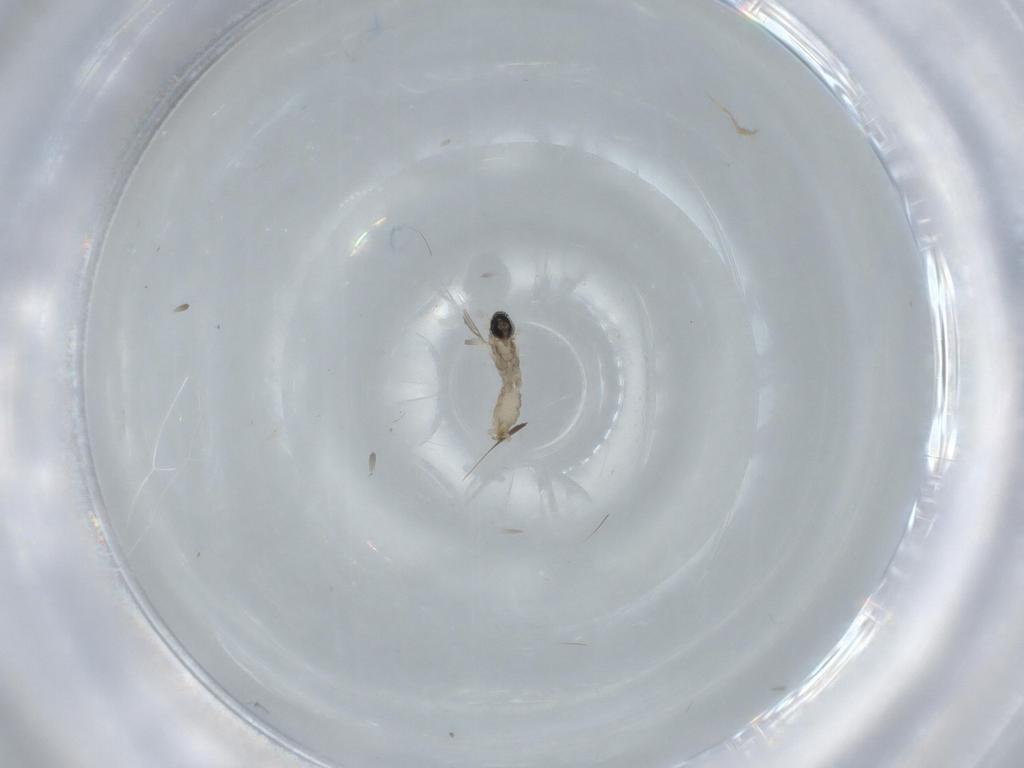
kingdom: Animalia
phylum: Arthropoda
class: Insecta
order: Diptera
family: Cecidomyiidae
